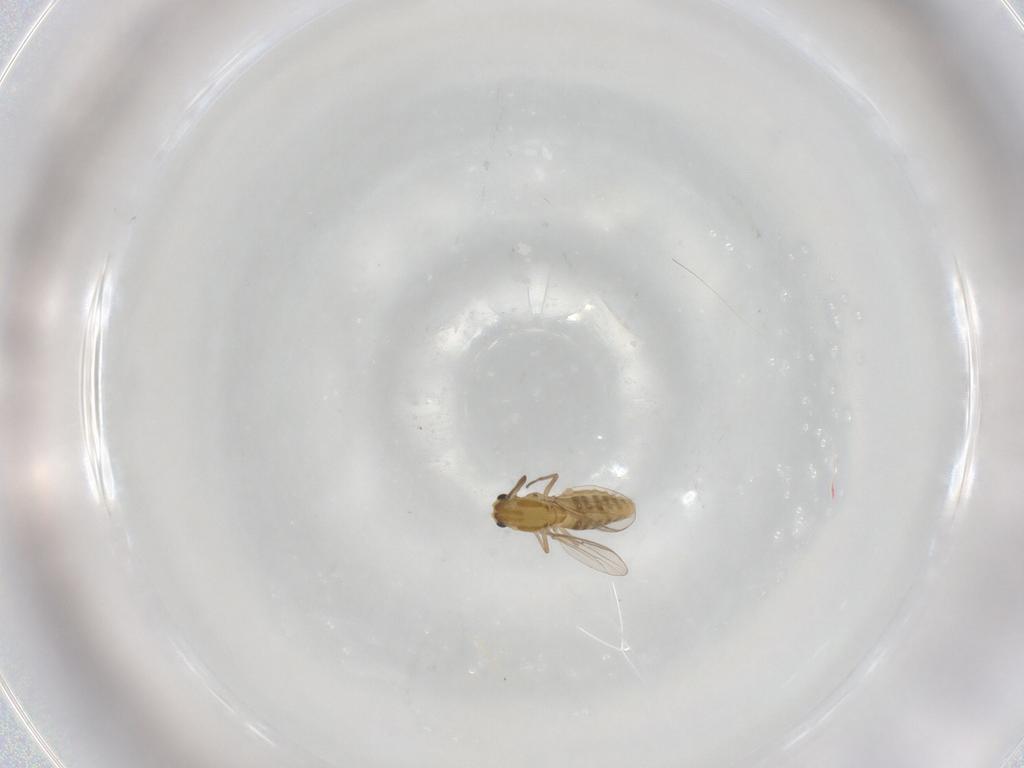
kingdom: Animalia
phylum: Arthropoda
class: Insecta
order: Diptera
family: Chironomidae
